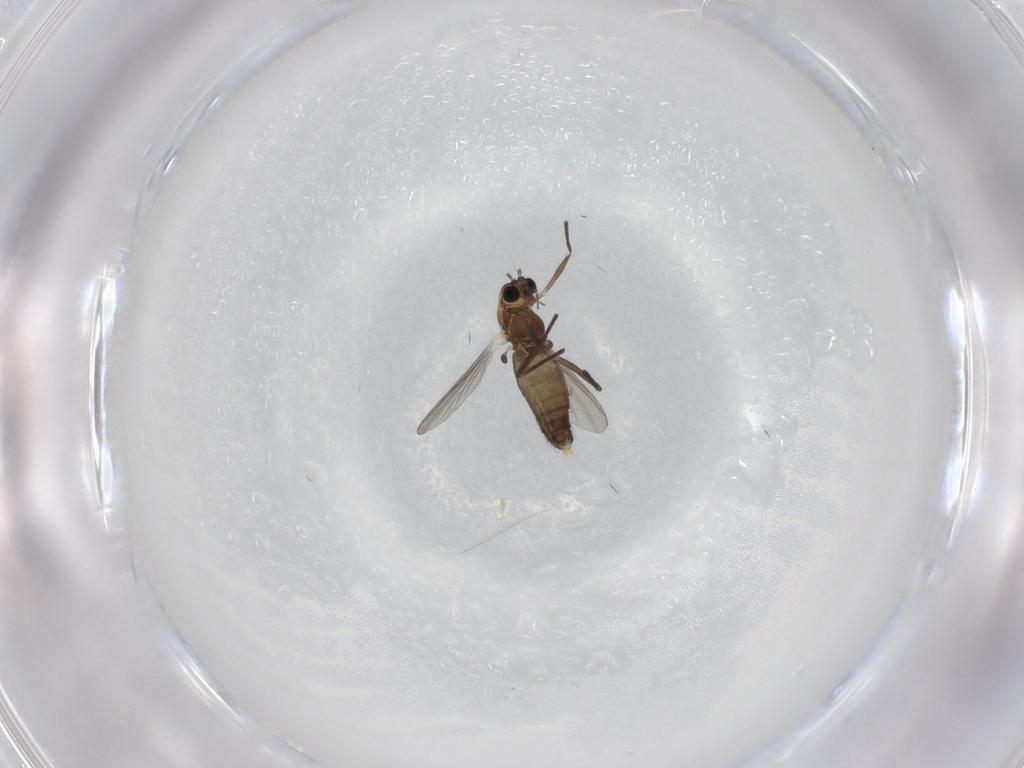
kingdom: Animalia
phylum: Arthropoda
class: Insecta
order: Diptera
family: Chironomidae
